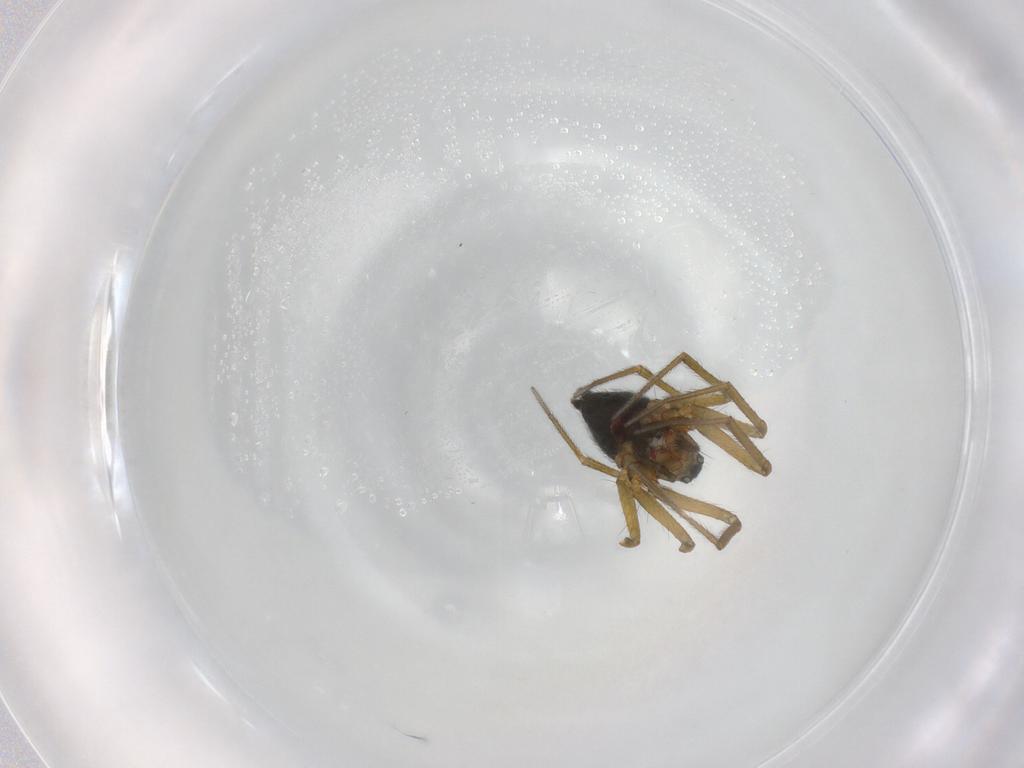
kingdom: Animalia
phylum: Arthropoda
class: Arachnida
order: Araneae
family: Linyphiidae
